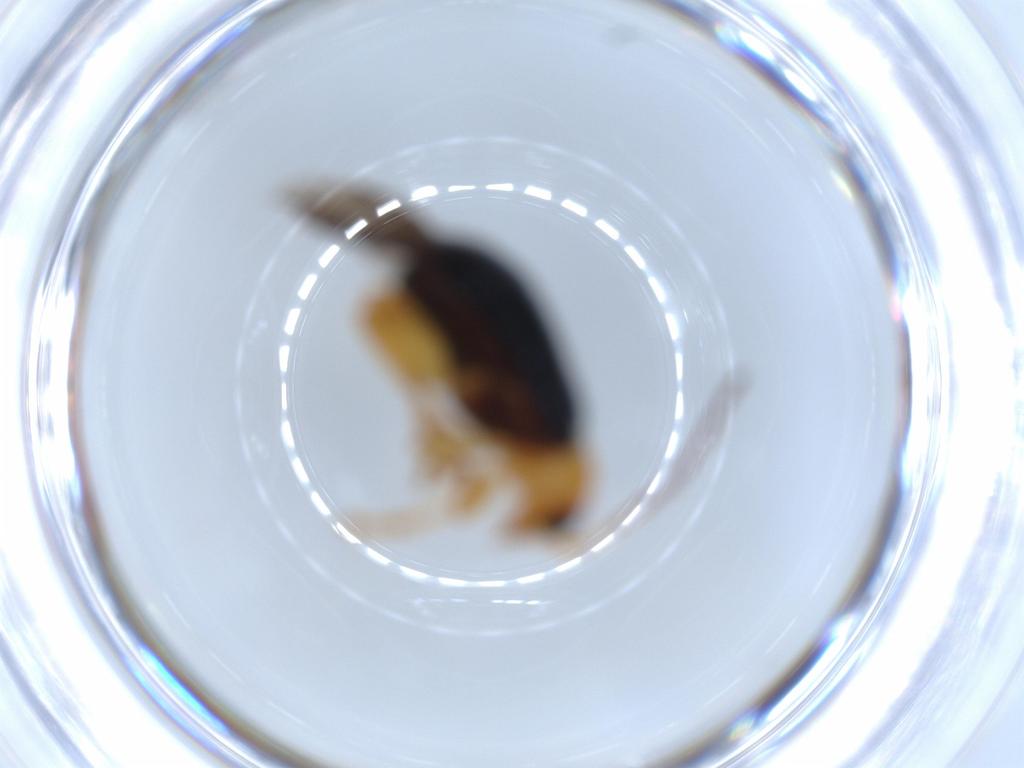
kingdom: Animalia
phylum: Arthropoda
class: Insecta
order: Coleoptera
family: Chrysomelidae
